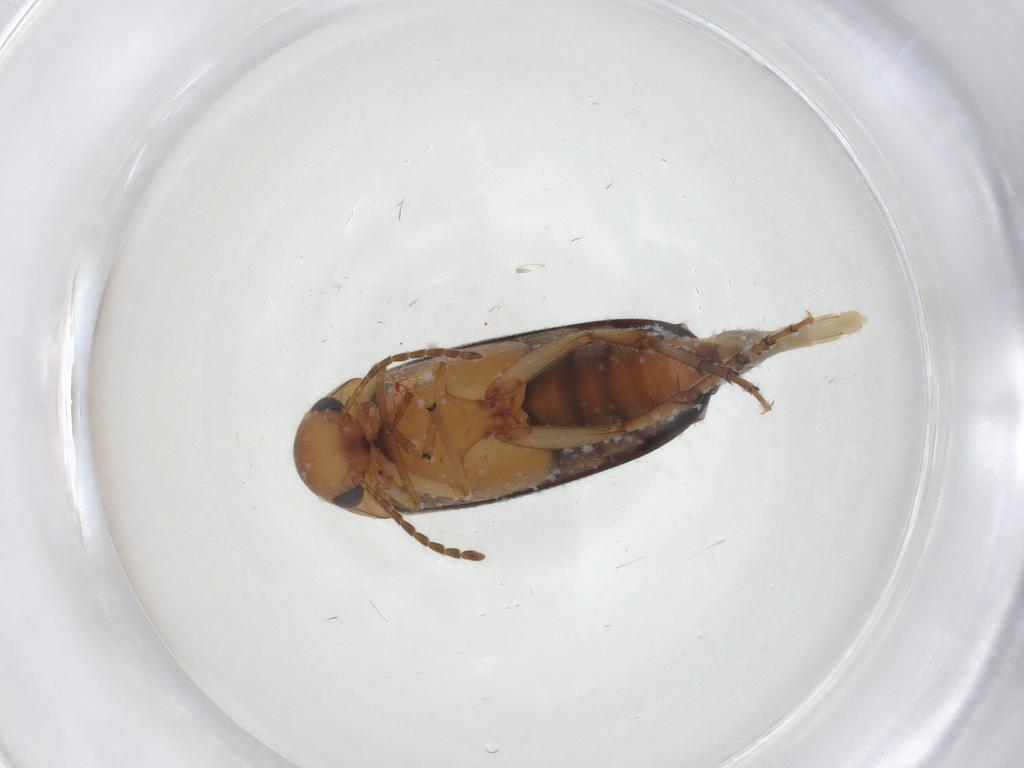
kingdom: Animalia
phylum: Arthropoda
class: Insecta
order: Coleoptera
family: Mordellidae
